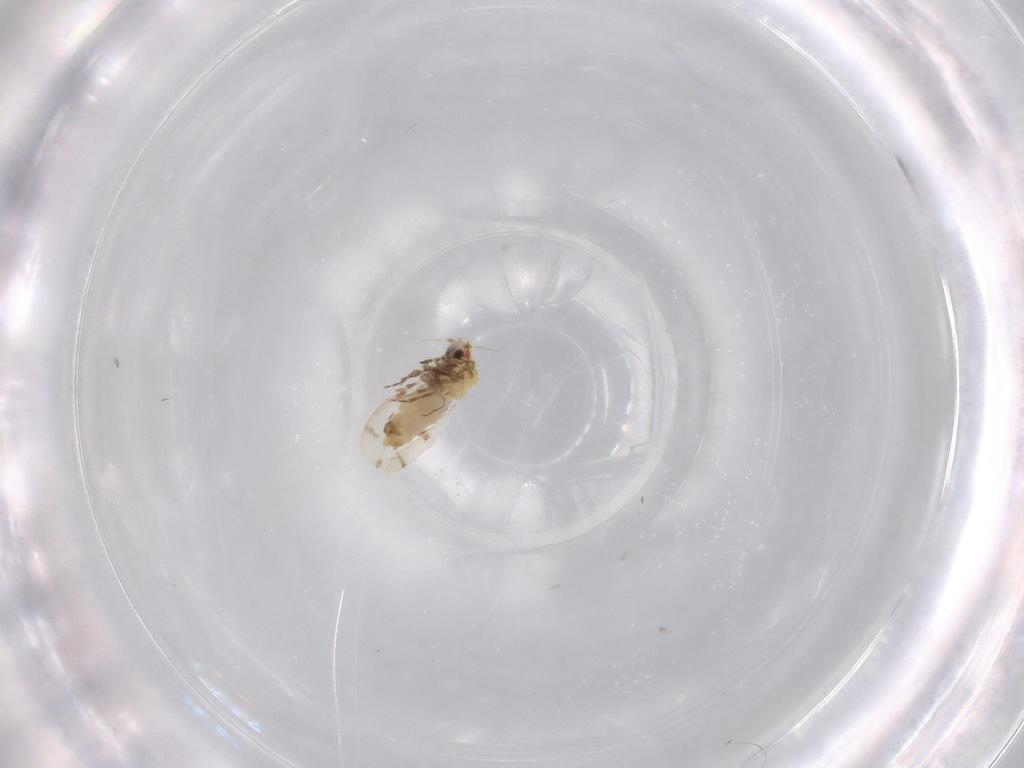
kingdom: Animalia
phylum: Arthropoda
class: Insecta
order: Hemiptera
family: Aleyrodidae
